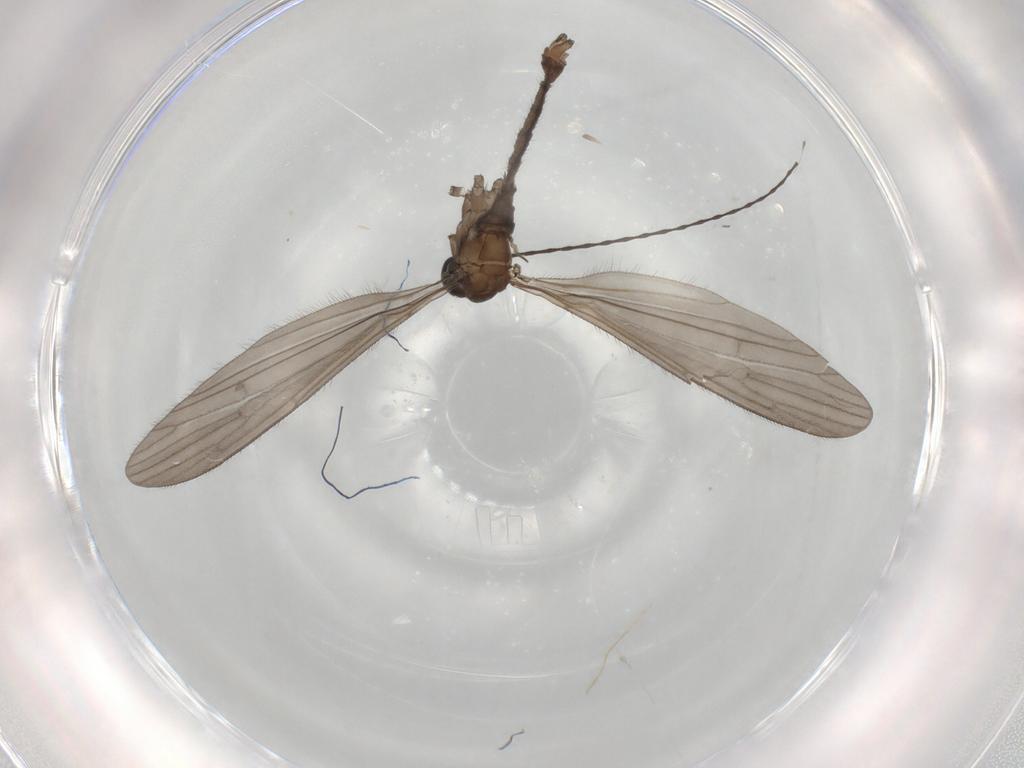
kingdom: Animalia
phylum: Arthropoda
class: Insecta
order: Diptera
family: Limoniidae
